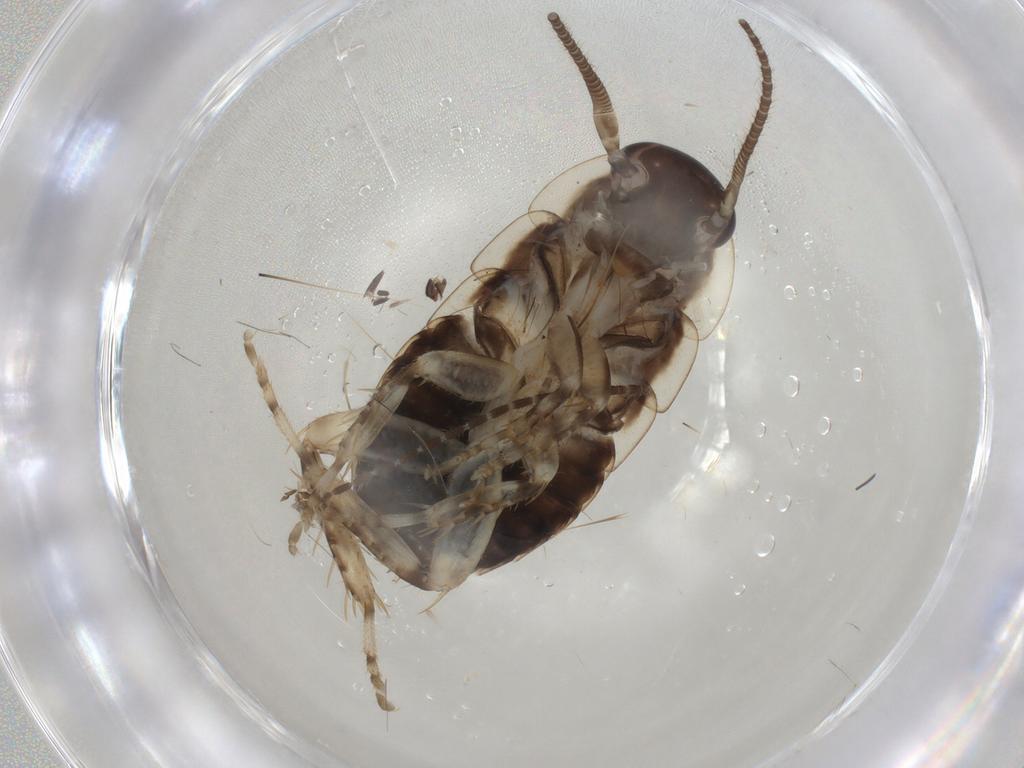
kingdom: Animalia
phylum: Arthropoda
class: Insecta
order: Blattodea
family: Blaberidae
